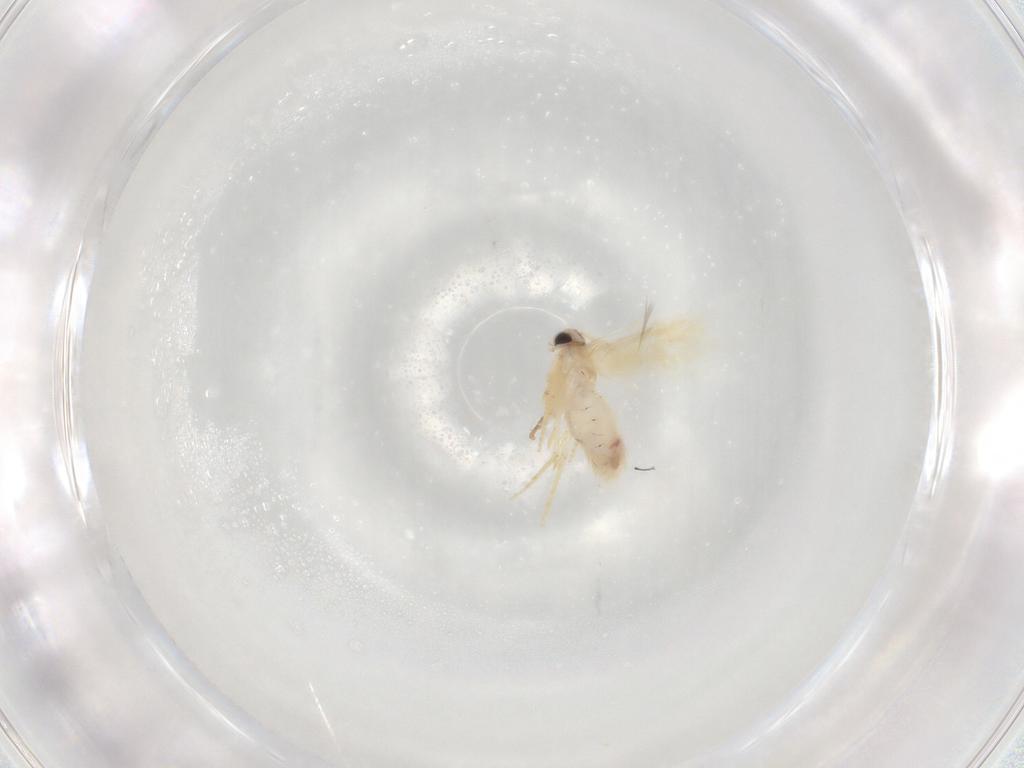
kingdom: Animalia
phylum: Arthropoda
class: Insecta
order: Lepidoptera
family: Nepticulidae
